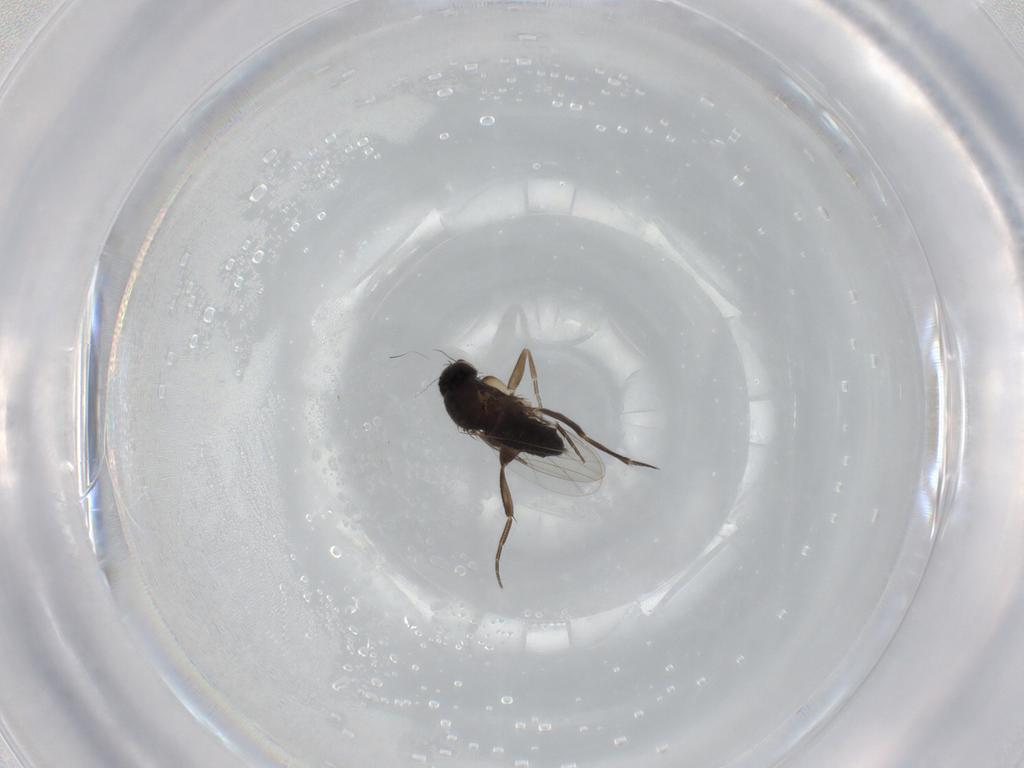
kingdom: Animalia
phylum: Arthropoda
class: Insecta
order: Diptera
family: Phoridae
